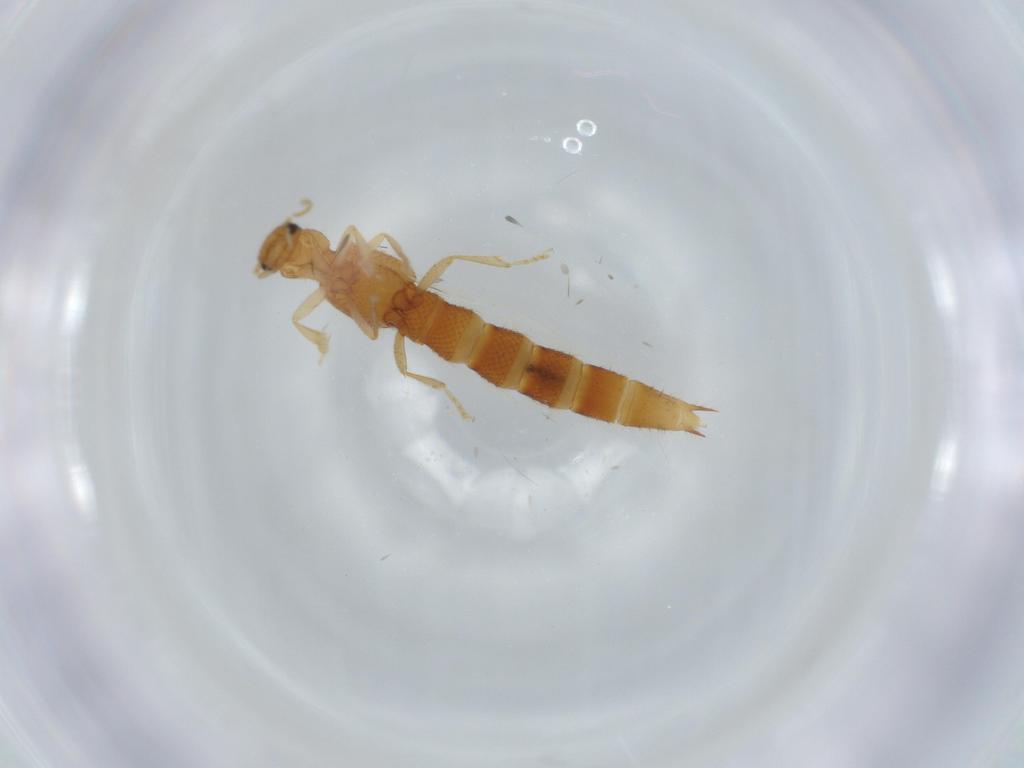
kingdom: Animalia
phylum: Arthropoda
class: Insecta
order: Coleoptera
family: Staphylinidae
